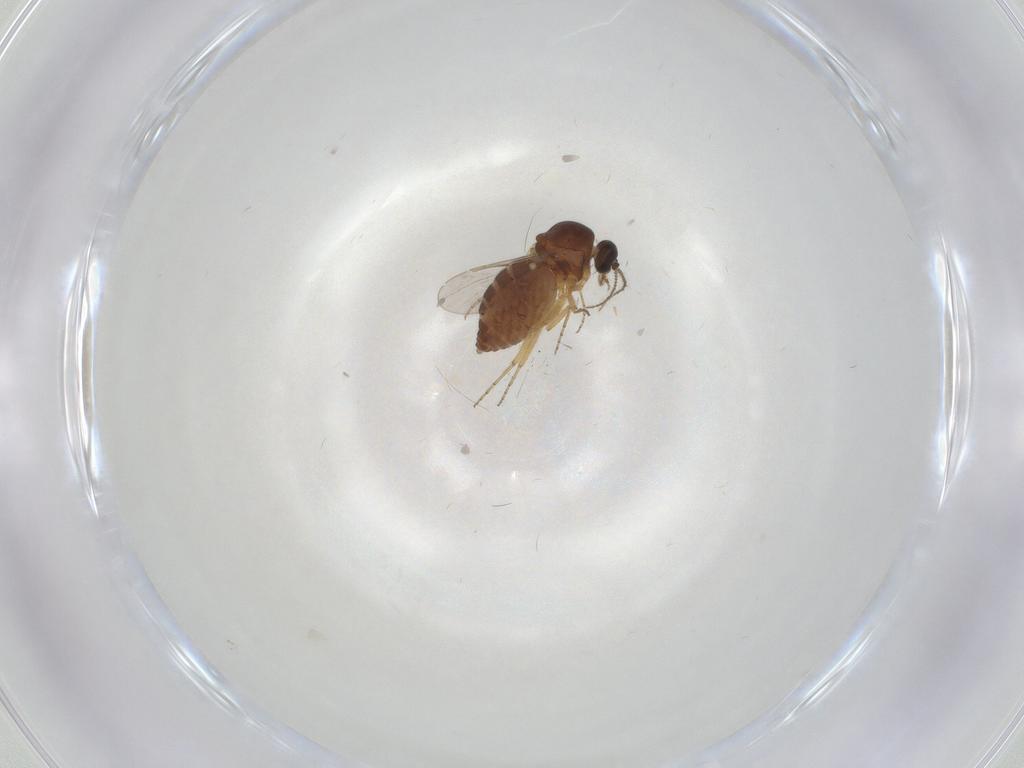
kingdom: Animalia
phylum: Arthropoda
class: Insecta
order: Diptera
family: Ceratopogonidae
